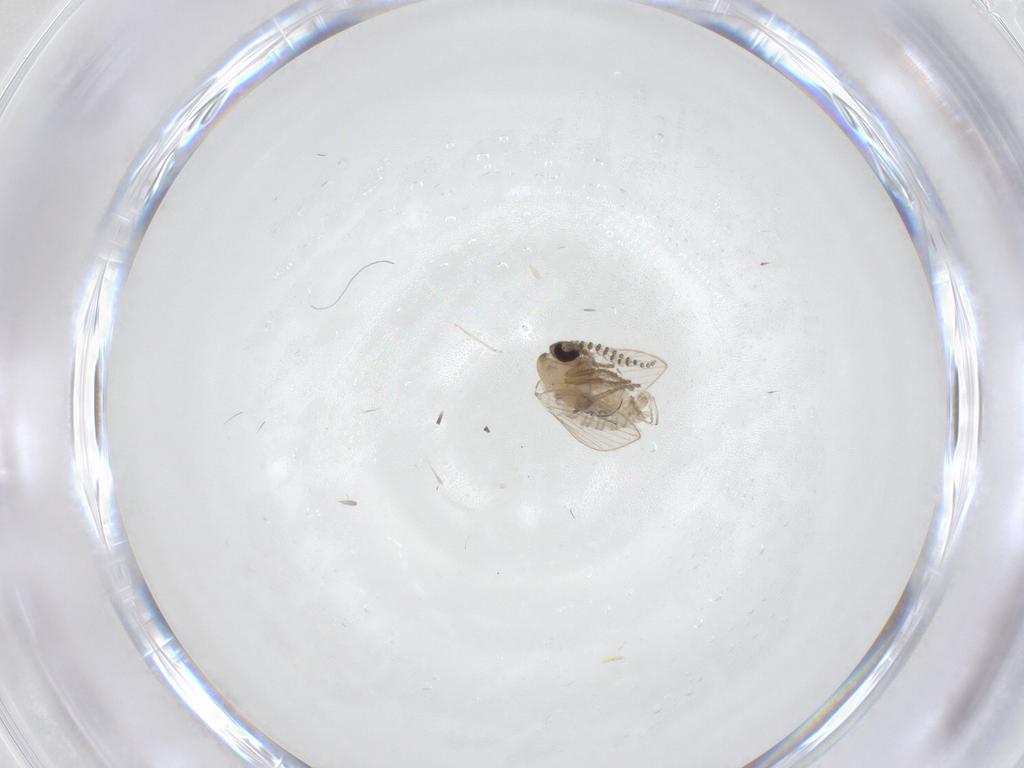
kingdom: Animalia
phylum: Arthropoda
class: Insecta
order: Diptera
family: Psychodidae
